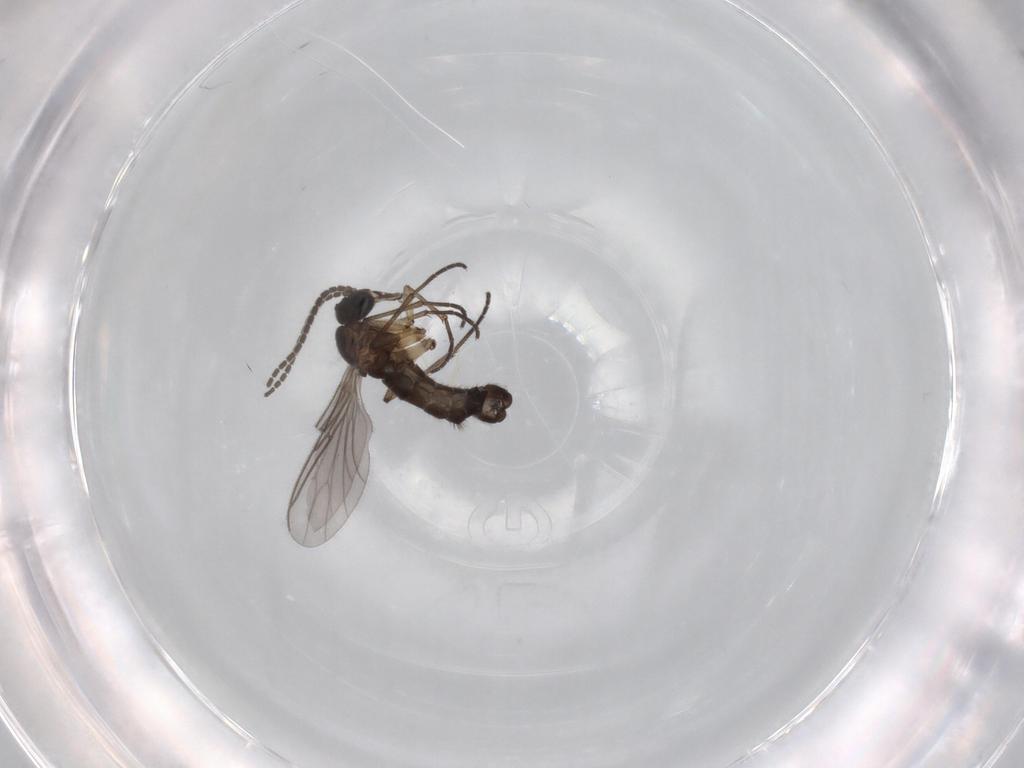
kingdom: Animalia
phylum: Arthropoda
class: Insecta
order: Diptera
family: Sciaridae
